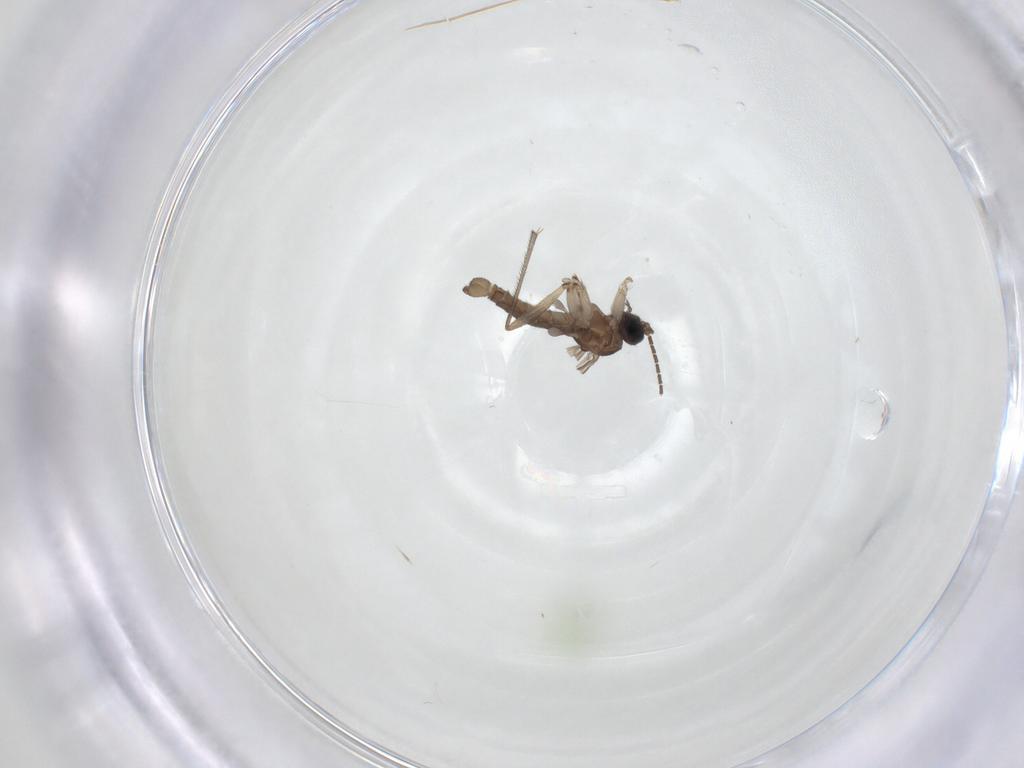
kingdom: Animalia
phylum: Arthropoda
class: Insecta
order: Diptera
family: Sciaridae
